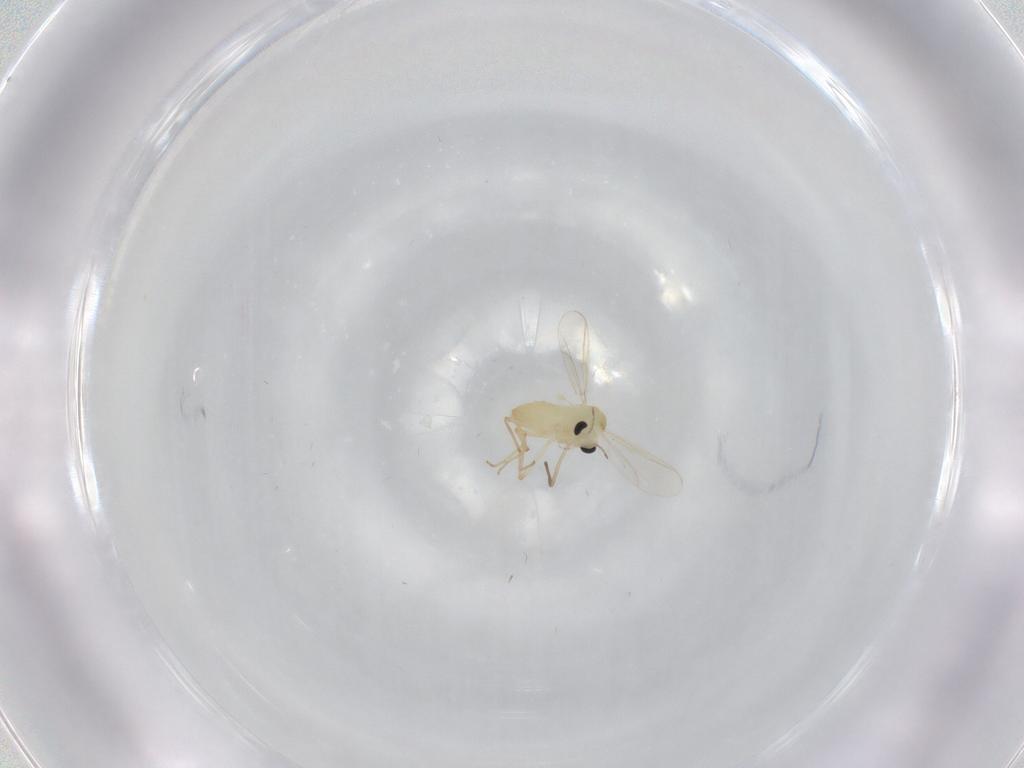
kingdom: Animalia
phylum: Arthropoda
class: Insecta
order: Diptera
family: Chironomidae
